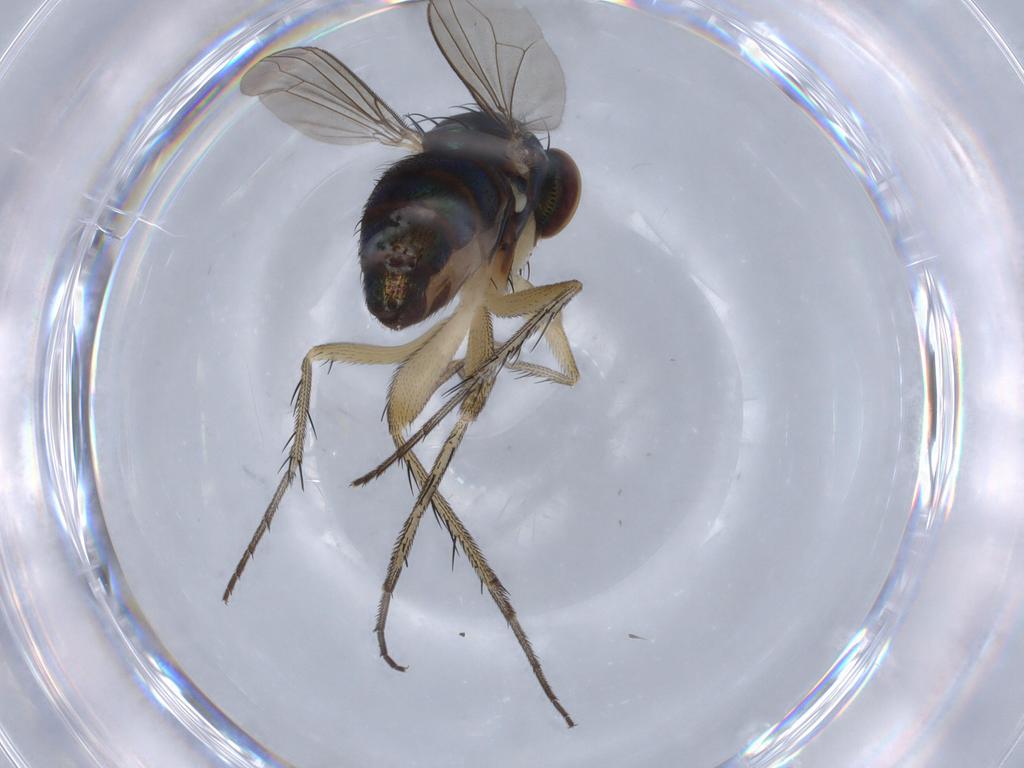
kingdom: Animalia
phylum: Arthropoda
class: Insecta
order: Diptera
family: Dolichopodidae
